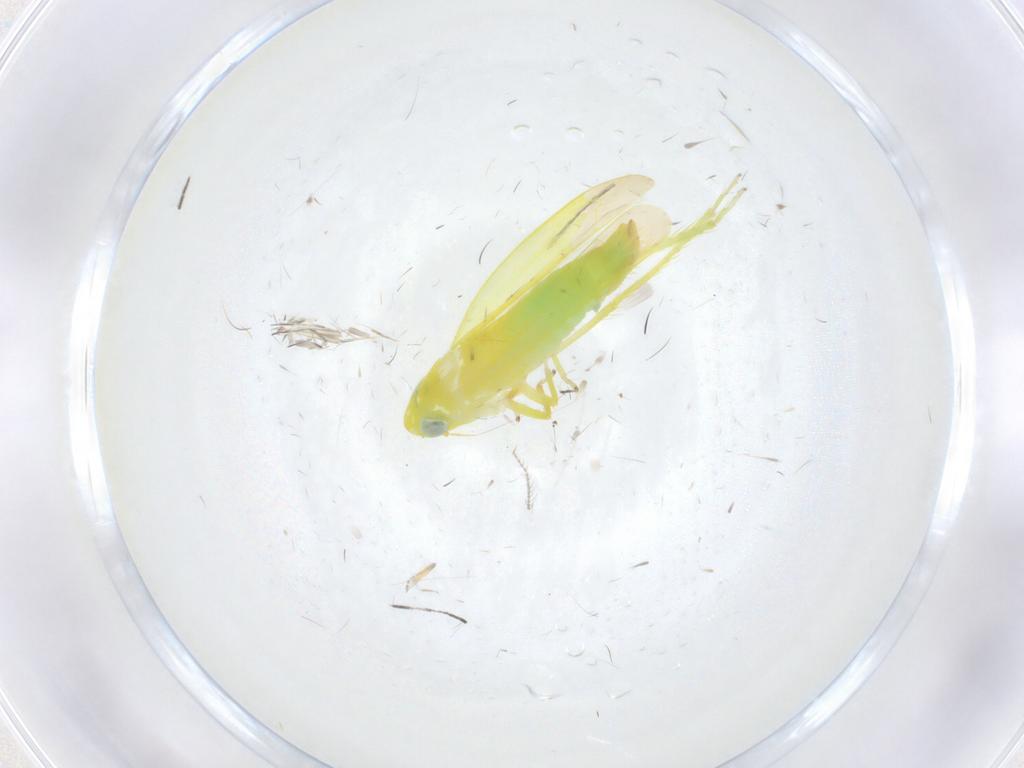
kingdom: Animalia
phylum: Arthropoda
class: Insecta
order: Hemiptera
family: Cicadellidae
